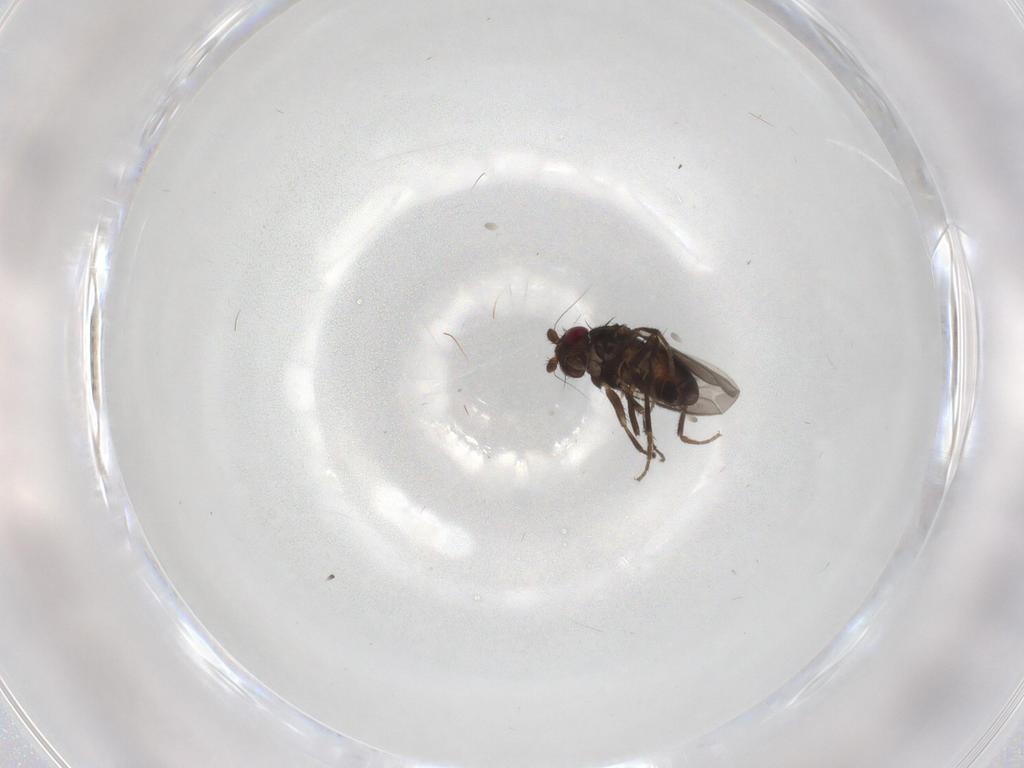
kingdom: Animalia
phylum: Arthropoda
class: Insecta
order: Diptera
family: Sphaeroceridae
